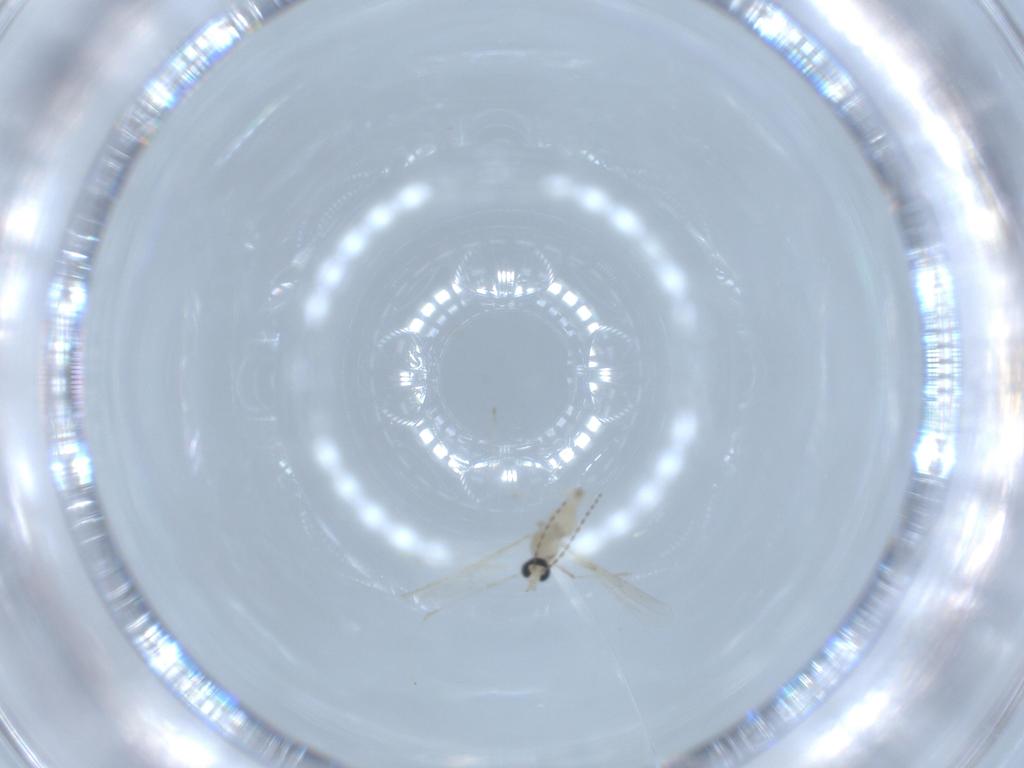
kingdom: Animalia
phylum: Arthropoda
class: Insecta
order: Diptera
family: Cecidomyiidae
